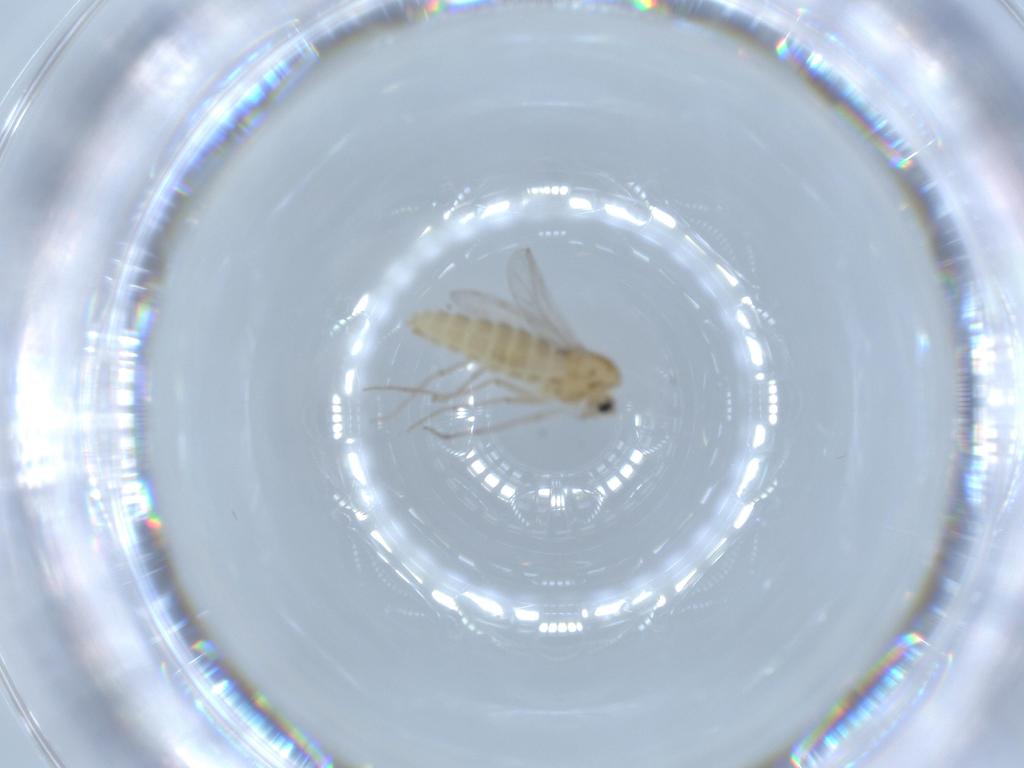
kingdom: Animalia
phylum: Arthropoda
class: Insecta
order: Diptera
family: Chironomidae
